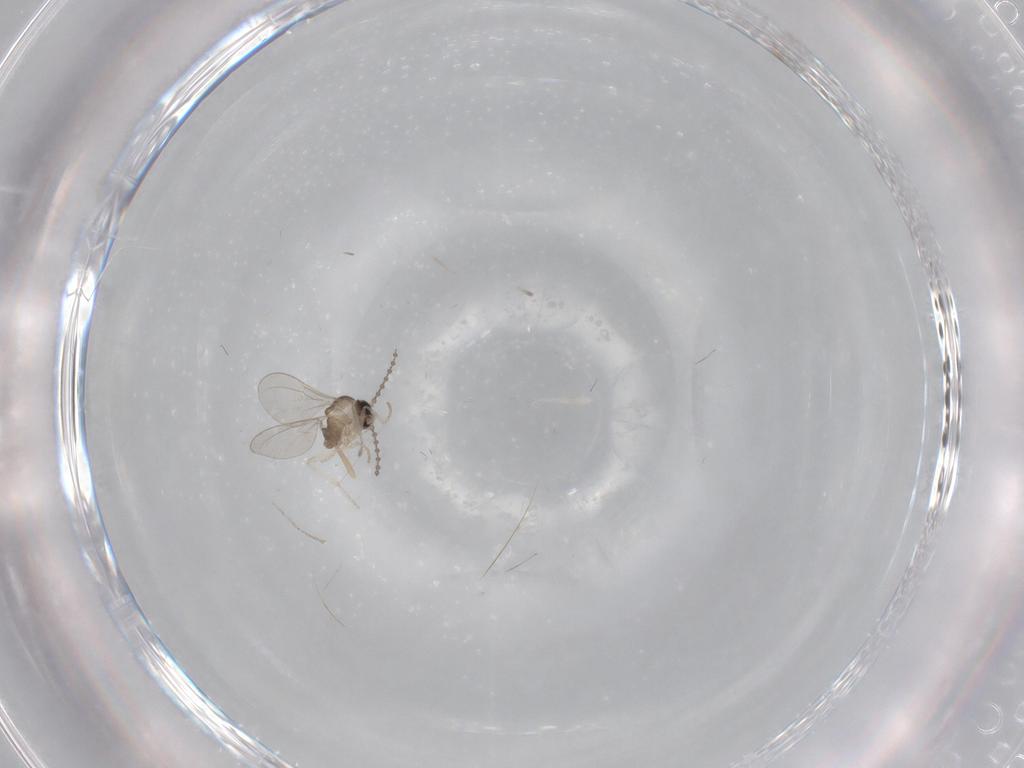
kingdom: Animalia
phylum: Arthropoda
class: Insecta
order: Diptera
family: Cecidomyiidae
